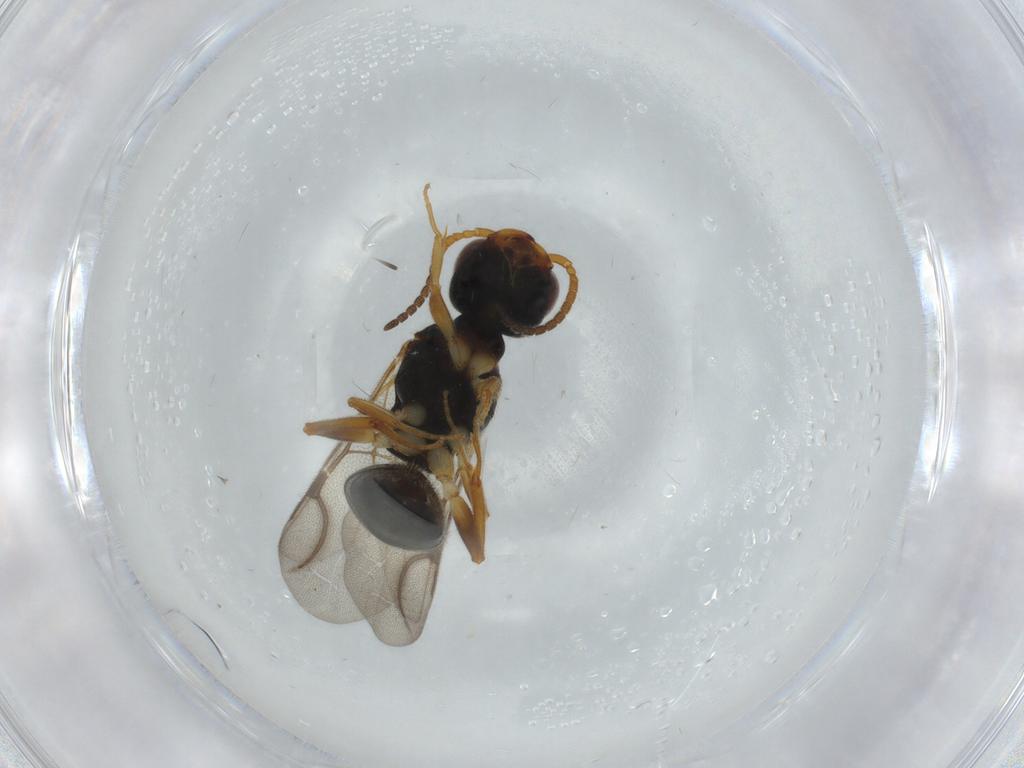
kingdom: Animalia
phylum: Arthropoda
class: Insecta
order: Hymenoptera
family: Bethylidae
